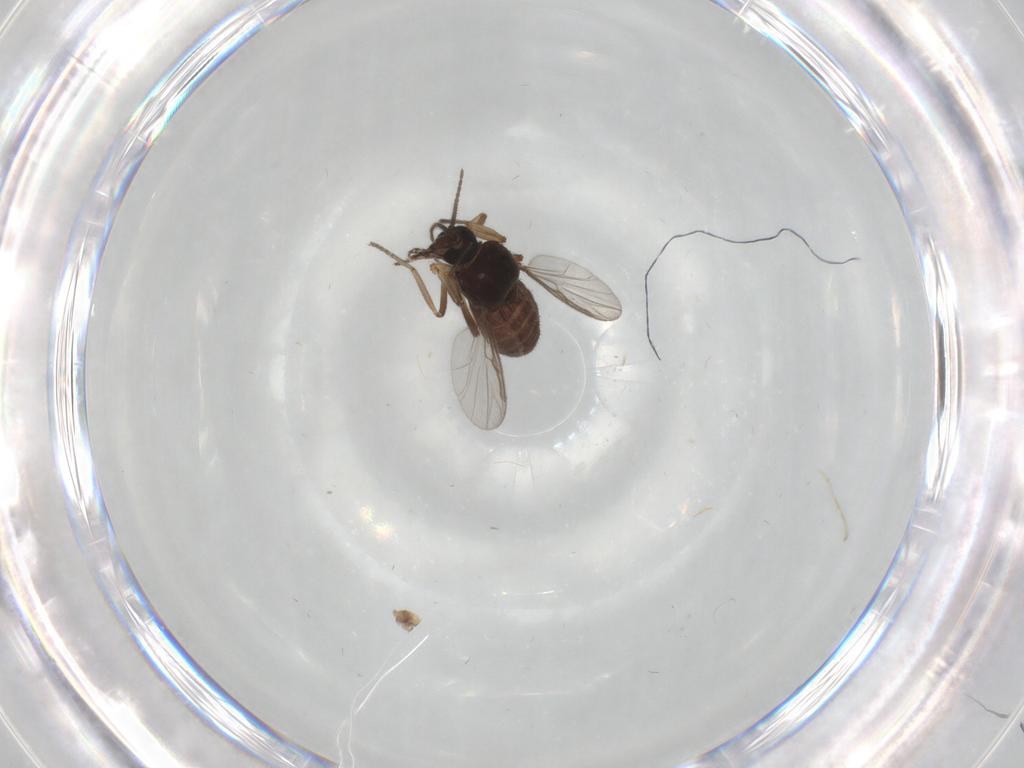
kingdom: Animalia
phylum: Arthropoda
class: Insecta
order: Diptera
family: Ceratopogonidae
